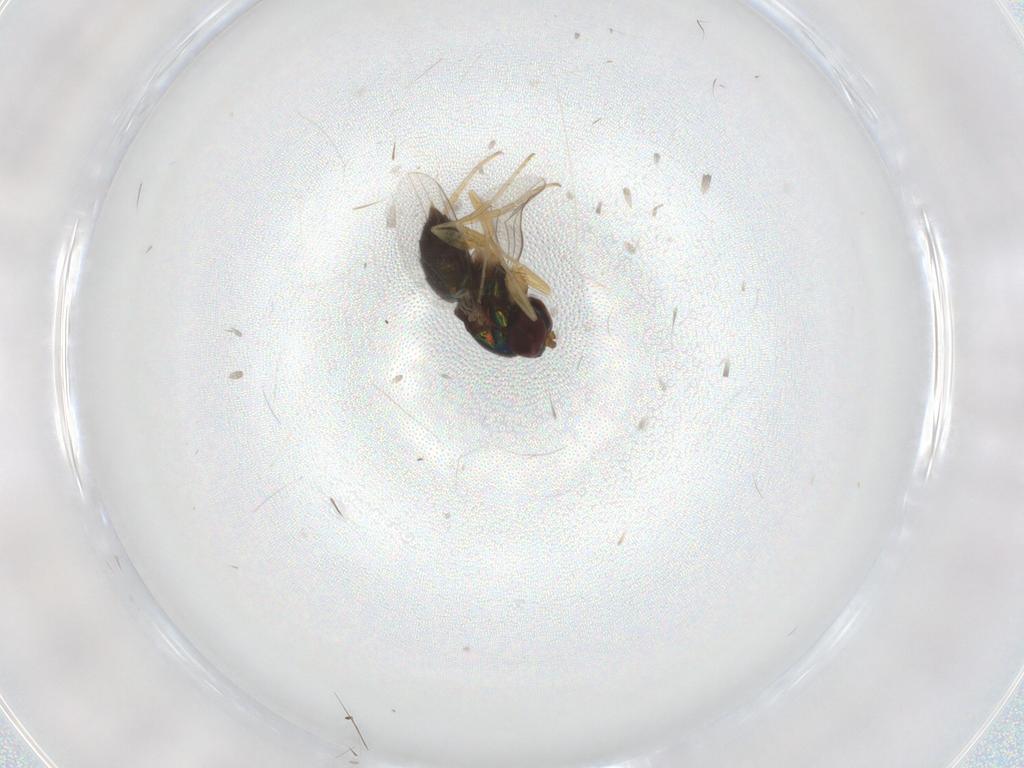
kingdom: Animalia
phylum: Arthropoda
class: Insecta
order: Diptera
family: Dolichopodidae
